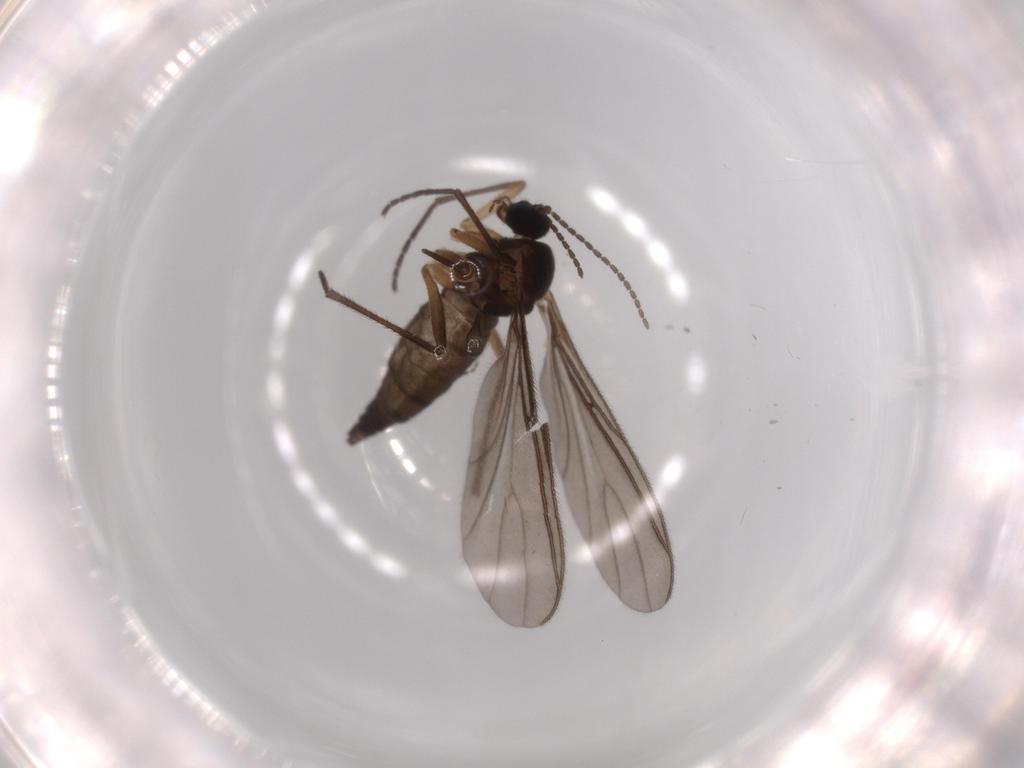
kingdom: Animalia
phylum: Arthropoda
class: Insecta
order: Diptera
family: Sciaridae
